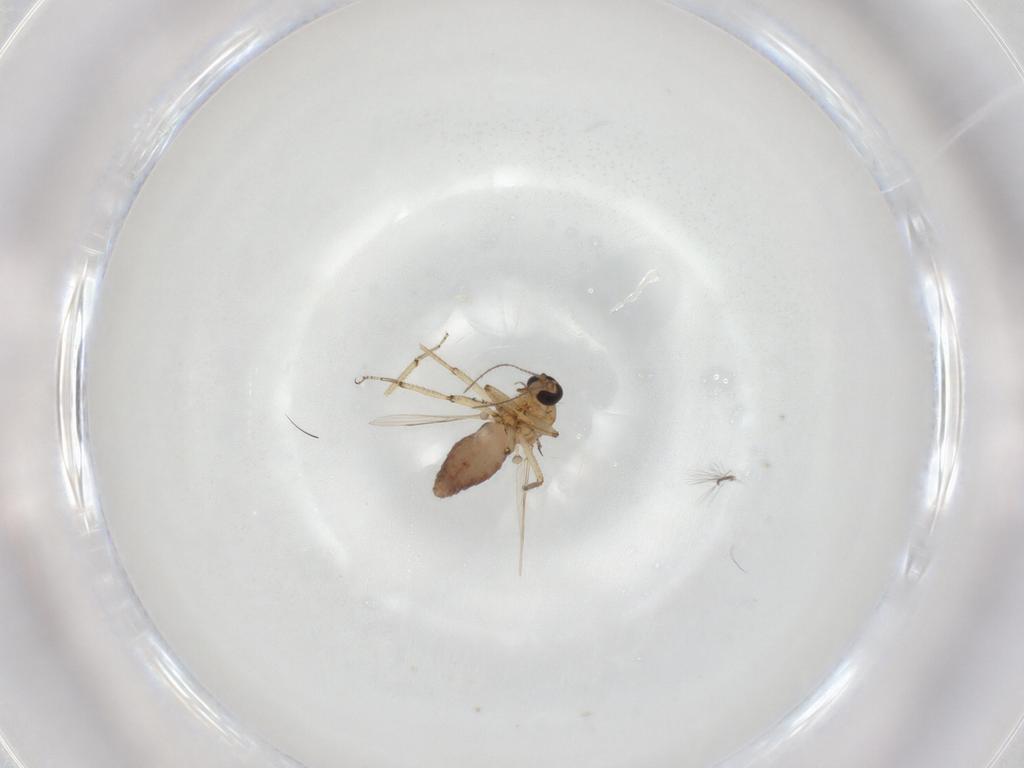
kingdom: Animalia
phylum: Arthropoda
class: Insecta
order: Diptera
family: Ceratopogonidae
